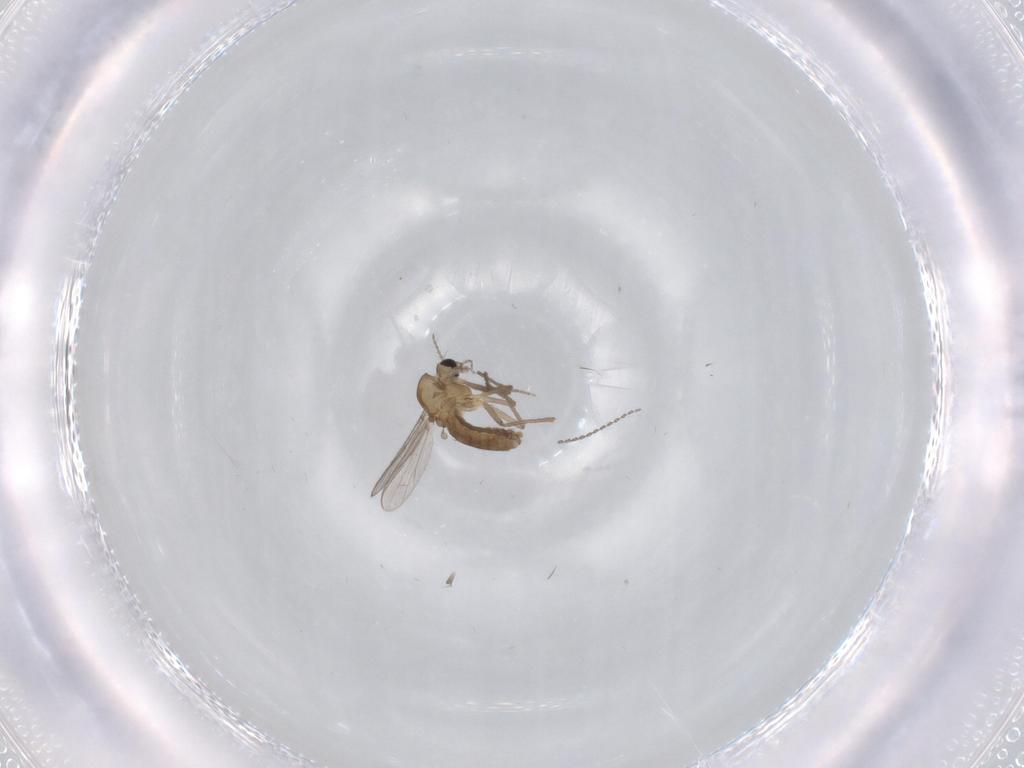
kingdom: Animalia
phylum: Arthropoda
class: Insecta
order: Diptera
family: Chironomidae
